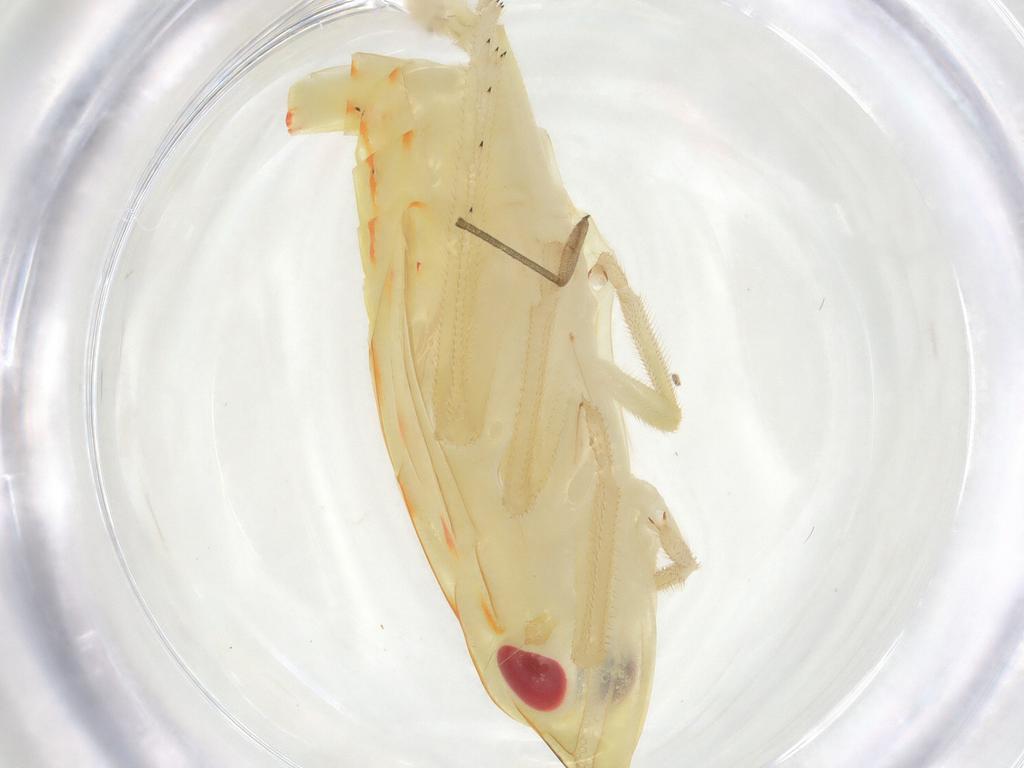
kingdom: Animalia
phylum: Arthropoda
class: Insecta
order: Hemiptera
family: Tropiduchidae
